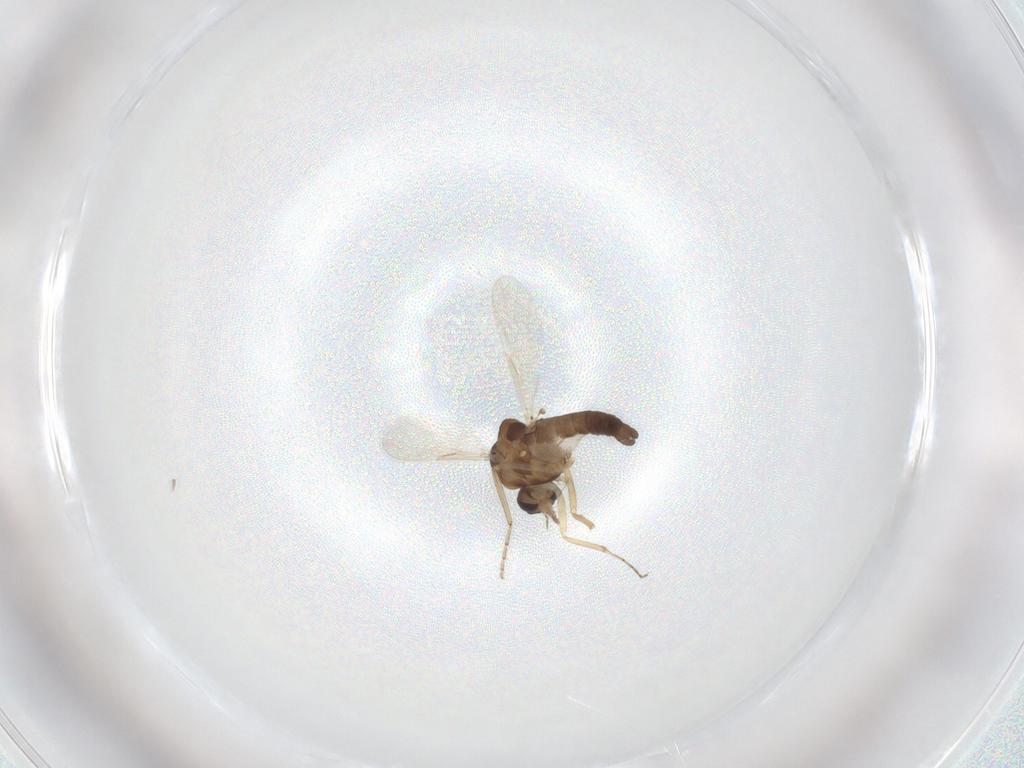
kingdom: Animalia
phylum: Arthropoda
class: Insecta
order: Diptera
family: Ceratopogonidae
